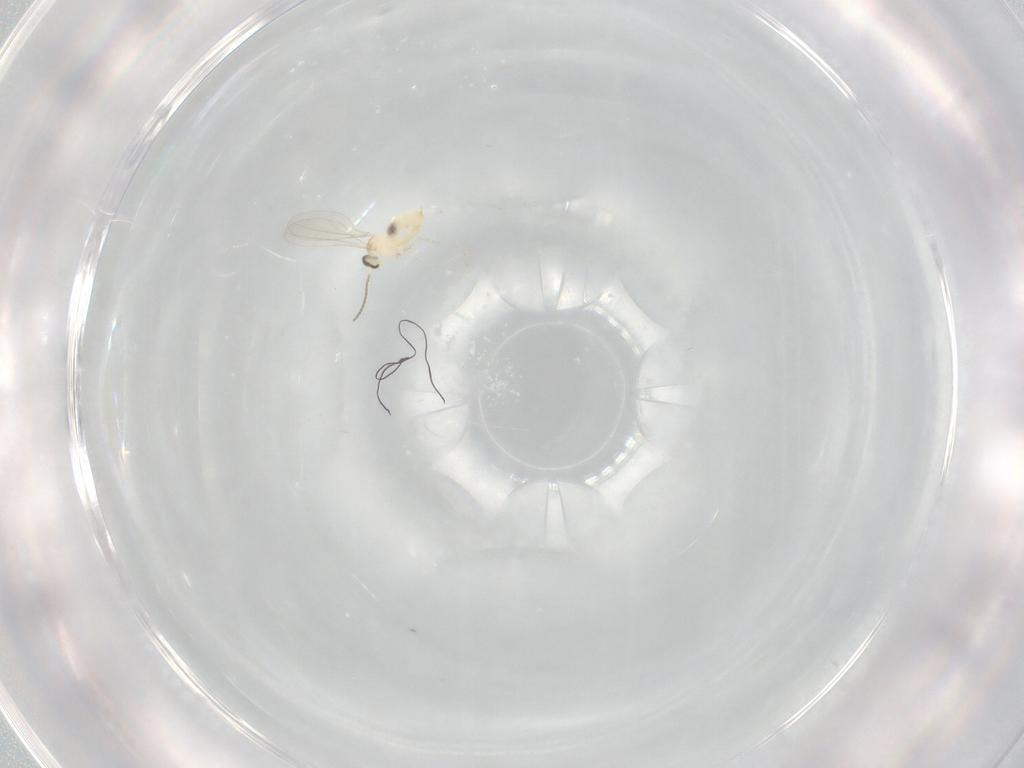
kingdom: Animalia
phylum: Arthropoda
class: Insecta
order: Diptera
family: Cecidomyiidae
